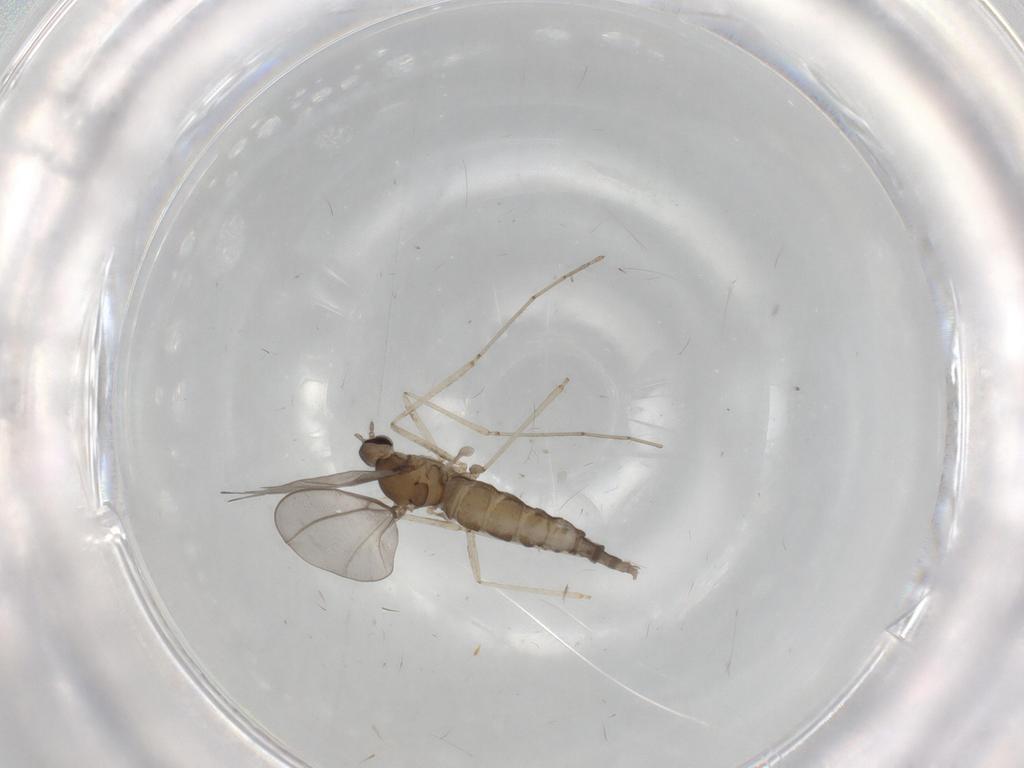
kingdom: Animalia
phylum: Arthropoda
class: Insecta
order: Diptera
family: Cecidomyiidae
